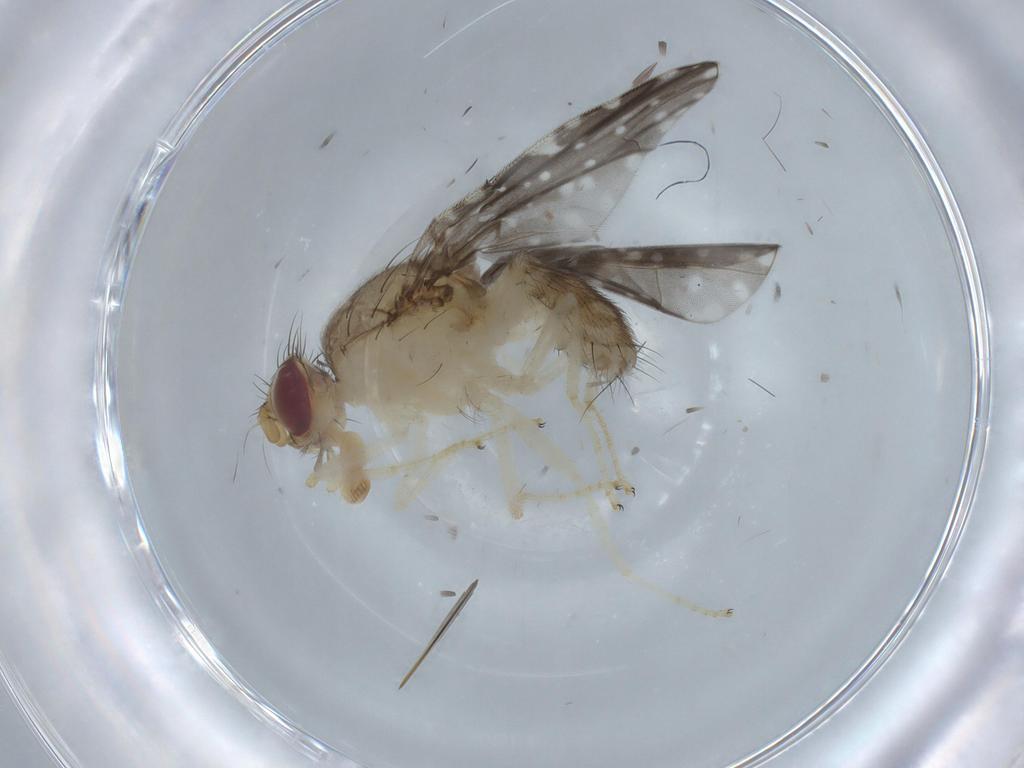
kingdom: Animalia
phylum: Arthropoda
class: Insecta
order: Diptera
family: Tephritidae
